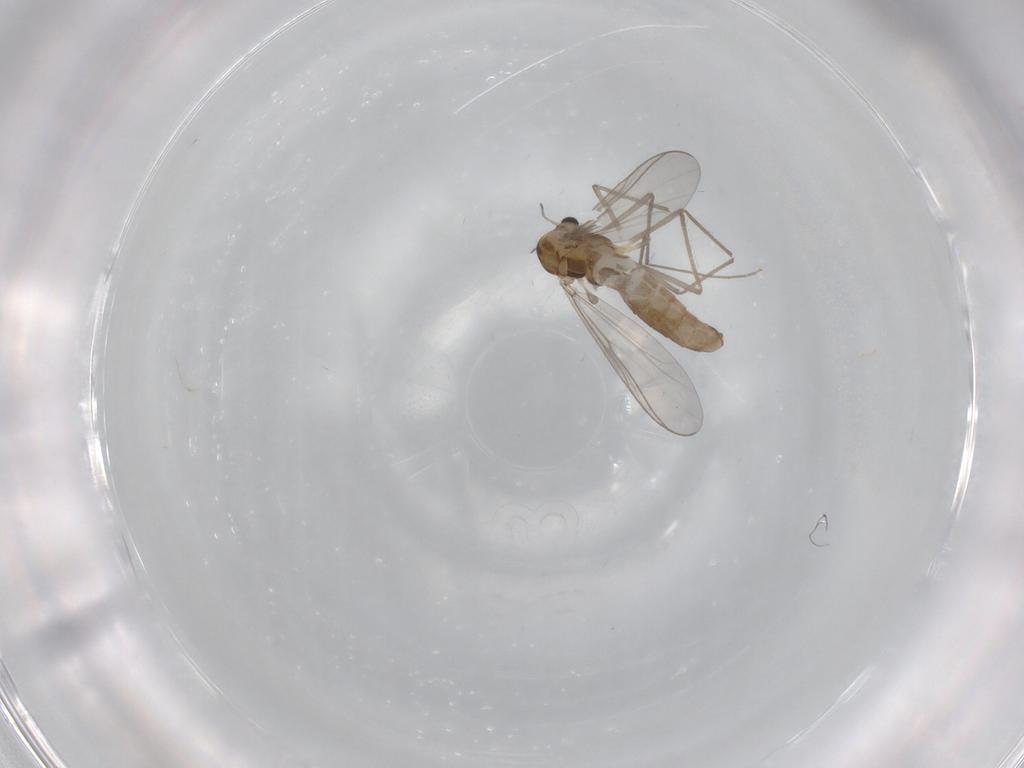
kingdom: Animalia
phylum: Arthropoda
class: Insecta
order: Diptera
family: Chironomidae
